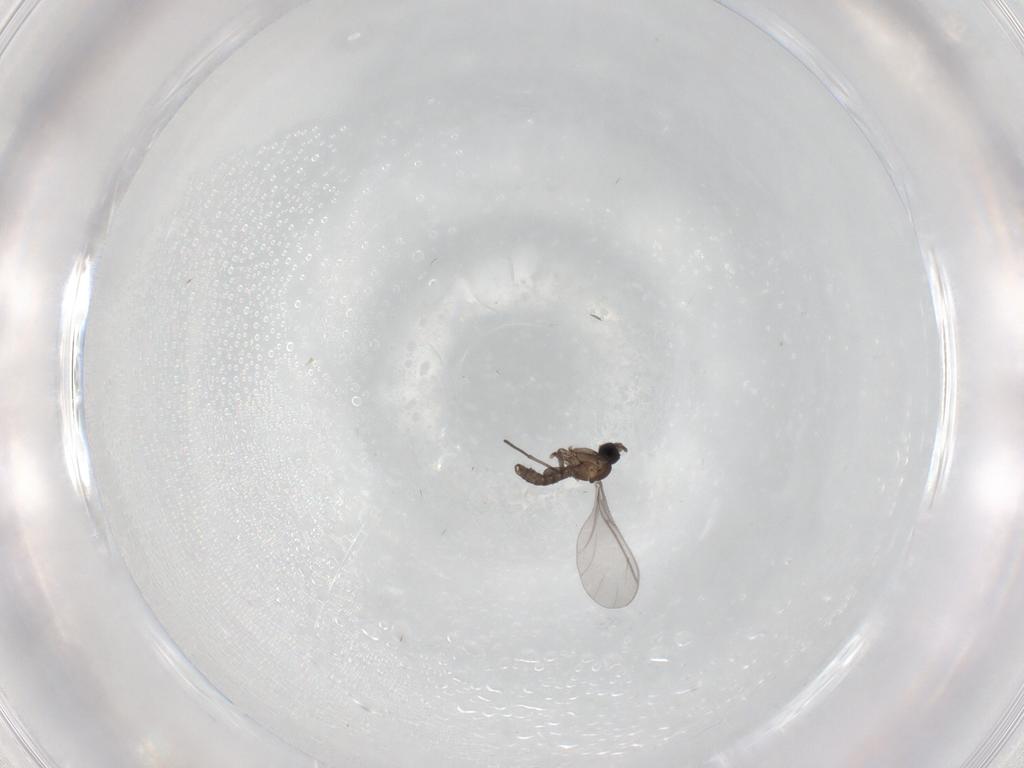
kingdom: Animalia
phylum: Arthropoda
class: Insecta
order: Diptera
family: Sciaridae
